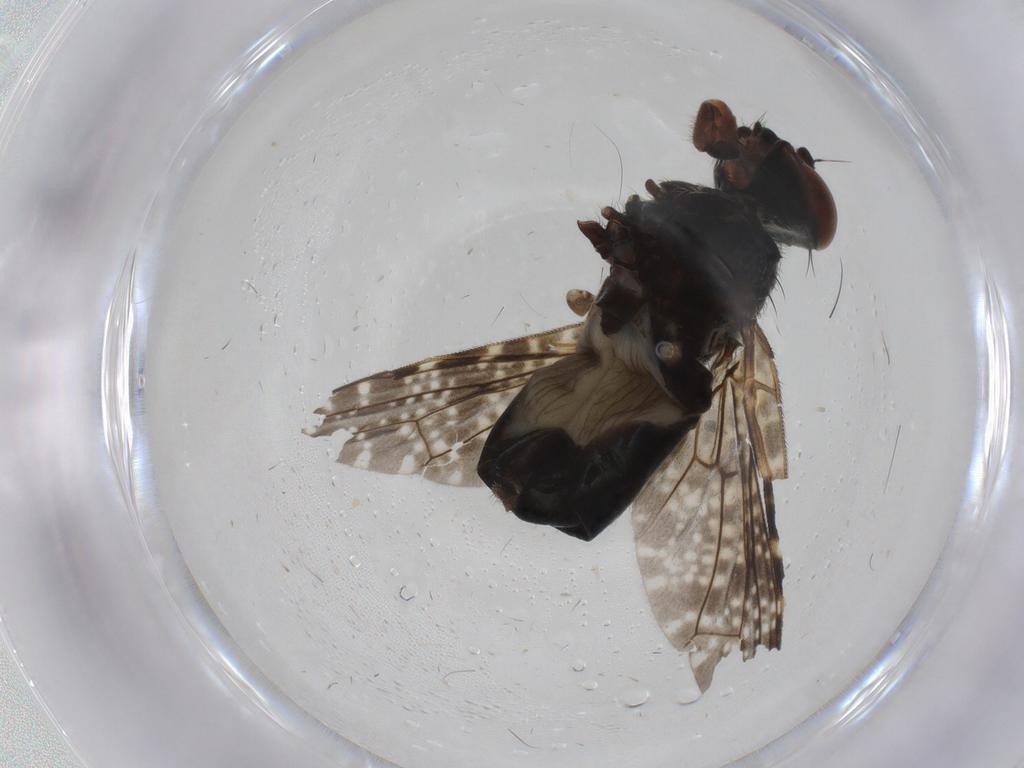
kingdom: Animalia
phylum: Arthropoda
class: Insecta
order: Diptera
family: Platystomatidae
